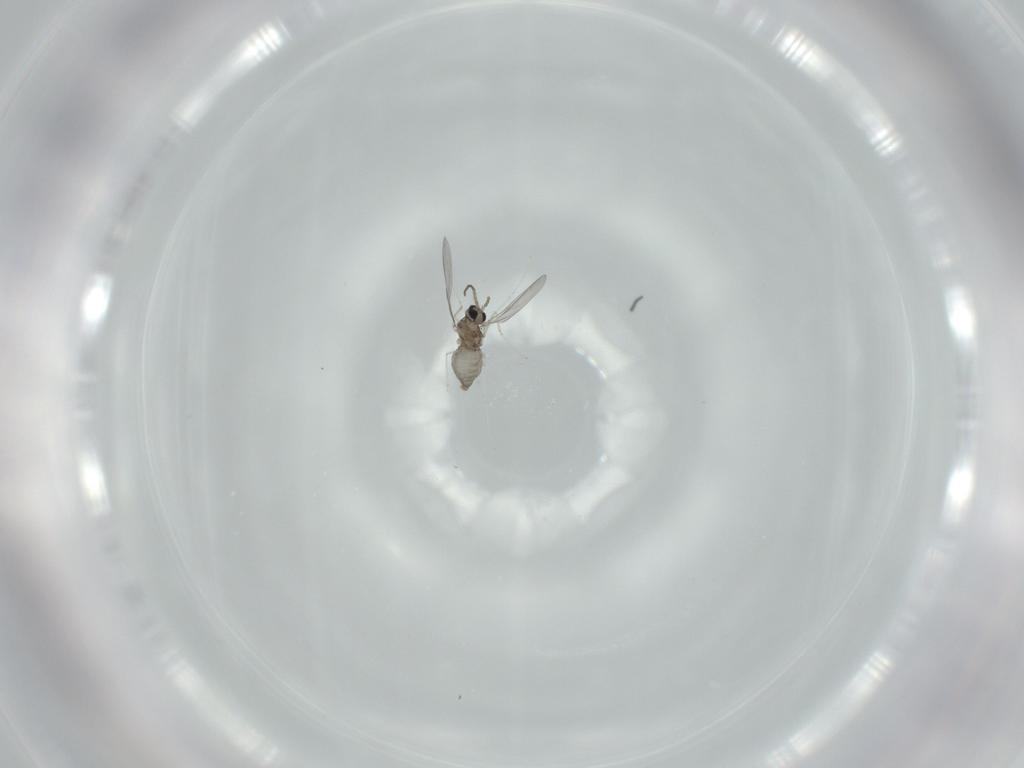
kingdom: Animalia
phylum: Arthropoda
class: Insecta
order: Diptera
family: Cecidomyiidae
